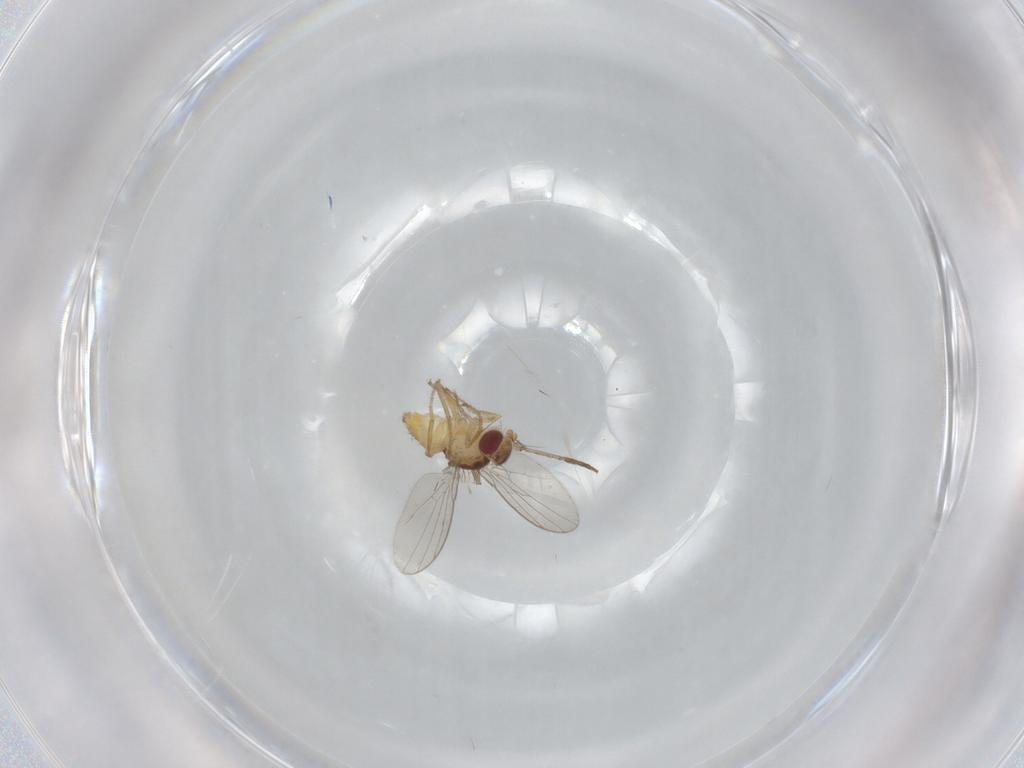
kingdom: Animalia
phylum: Arthropoda
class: Insecta
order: Diptera
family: Psychodidae
